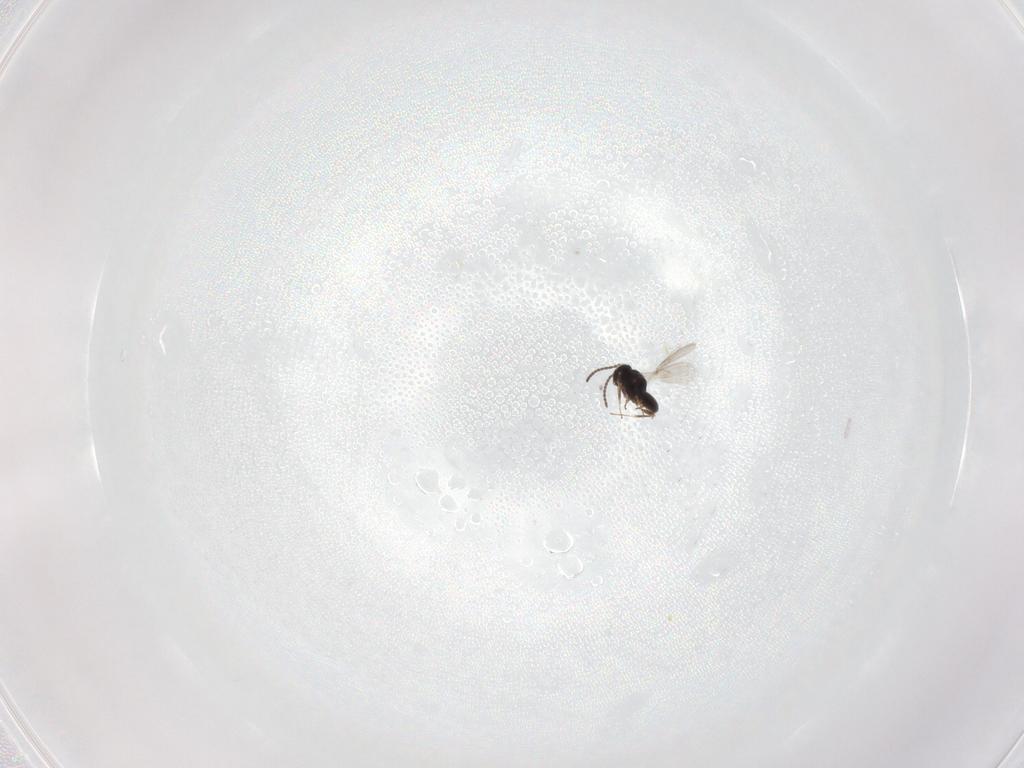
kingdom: Animalia
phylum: Arthropoda
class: Insecta
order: Hymenoptera
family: Scelionidae
